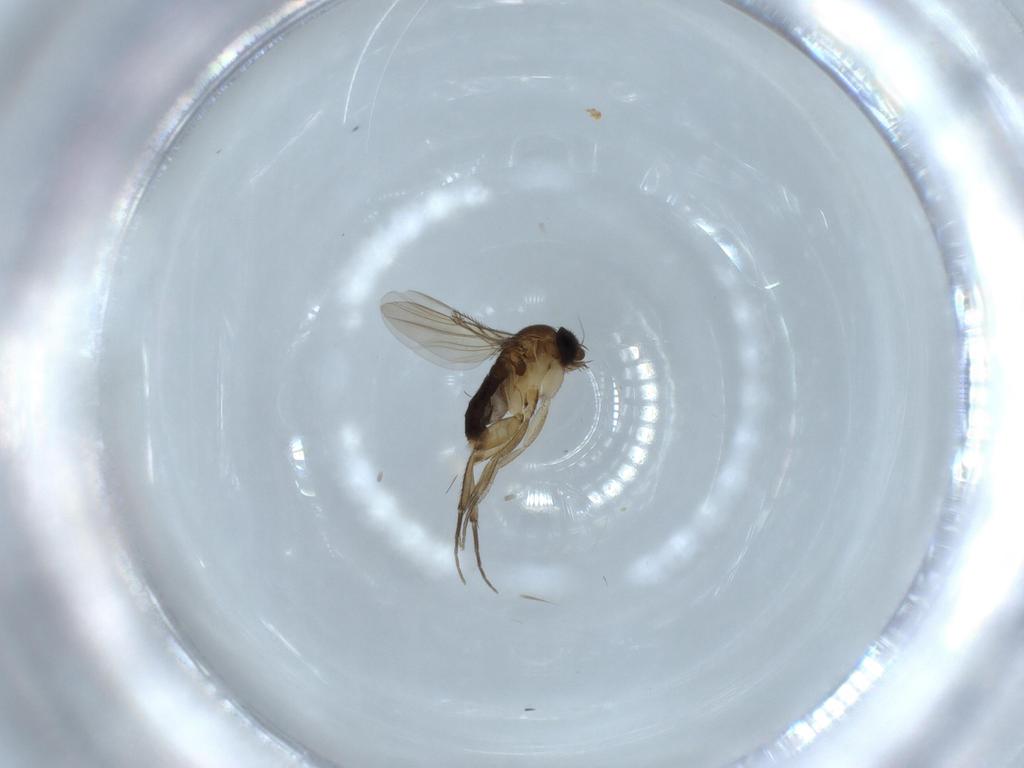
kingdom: Animalia
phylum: Arthropoda
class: Insecta
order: Diptera
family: Phoridae
